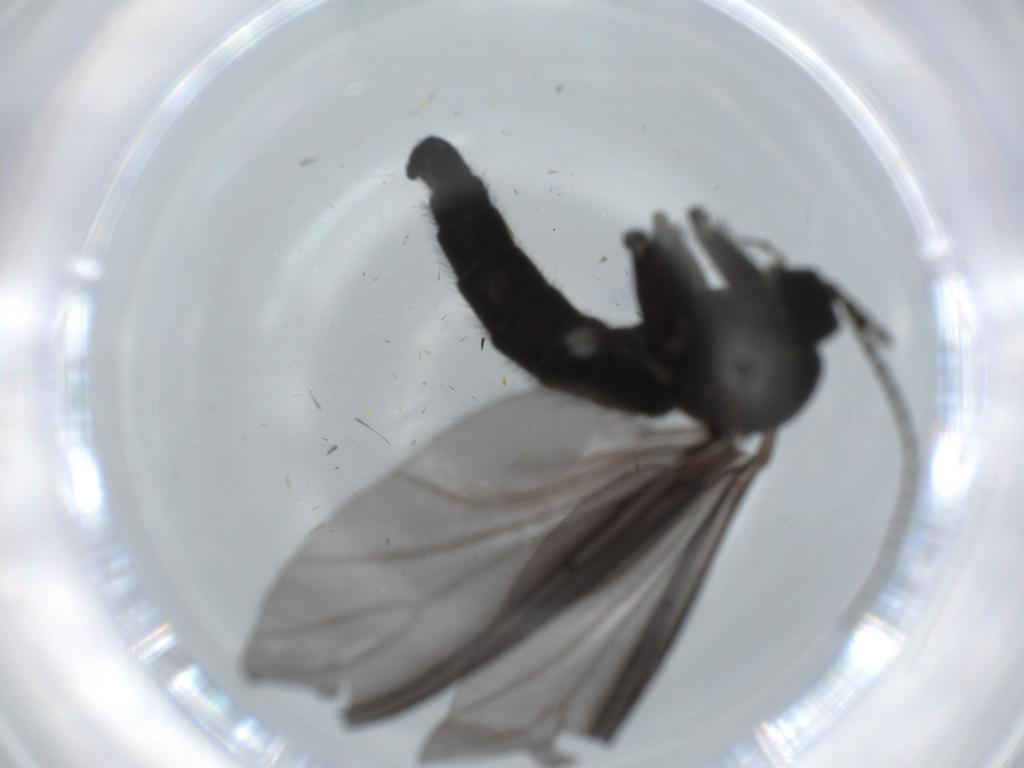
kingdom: Animalia
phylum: Arthropoda
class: Insecta
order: Diptera
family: Sciaridae
